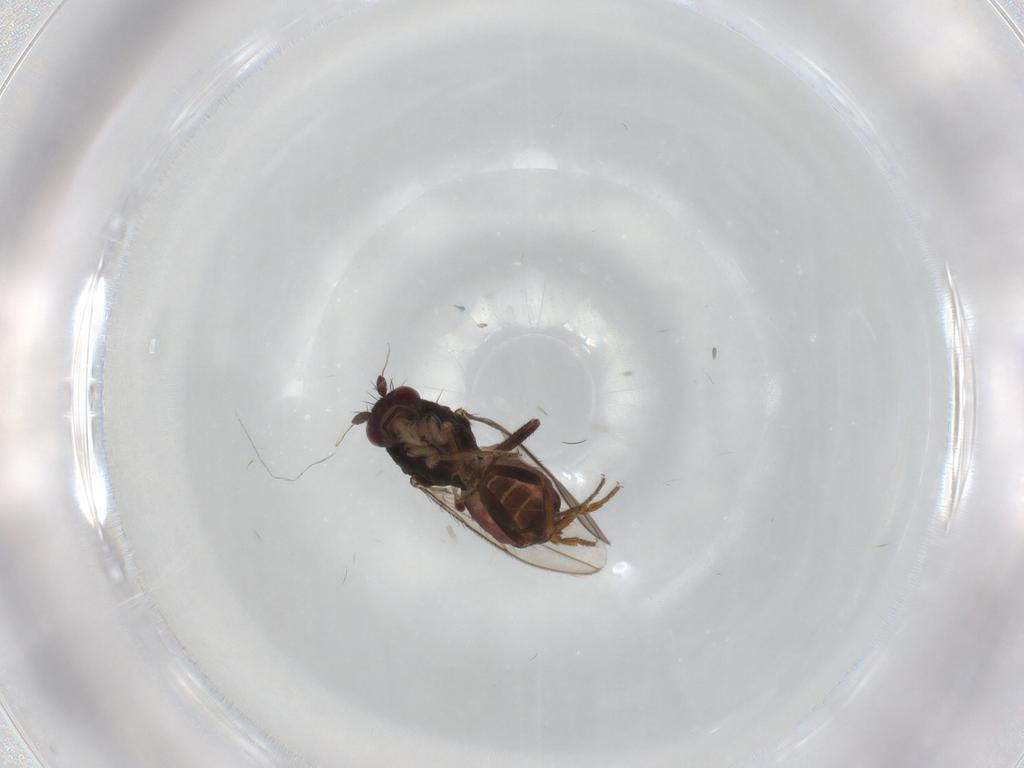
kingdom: Animalia
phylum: Arthropoda
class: Insecta
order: Diptera
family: Sphaeroceridae
